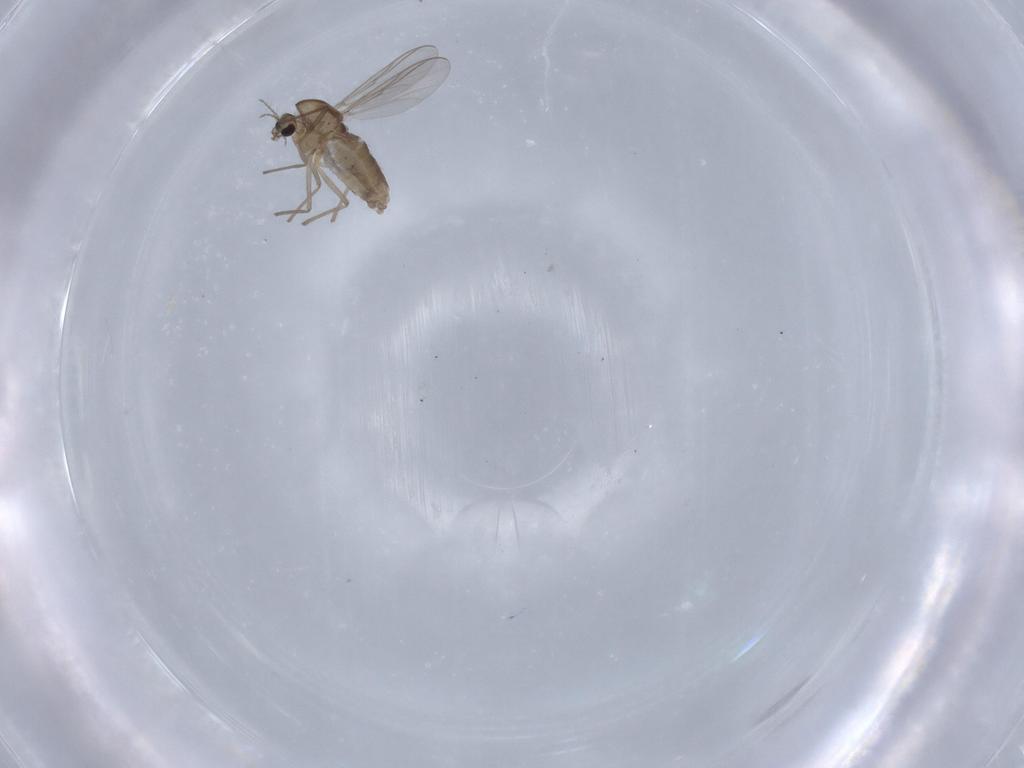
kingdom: Animalia
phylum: Arthropoda
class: Insecta
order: Diptera
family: Chironomidae
